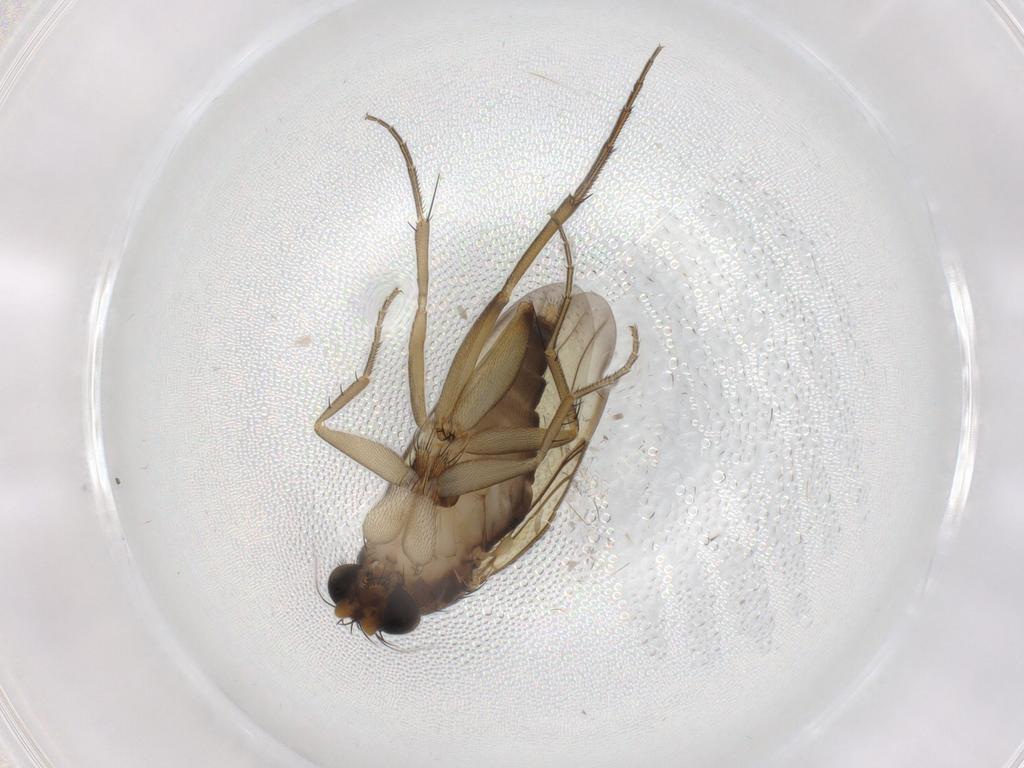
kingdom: Animalia
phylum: Arthropoda
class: Insecta
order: Diptera
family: Phoridae
